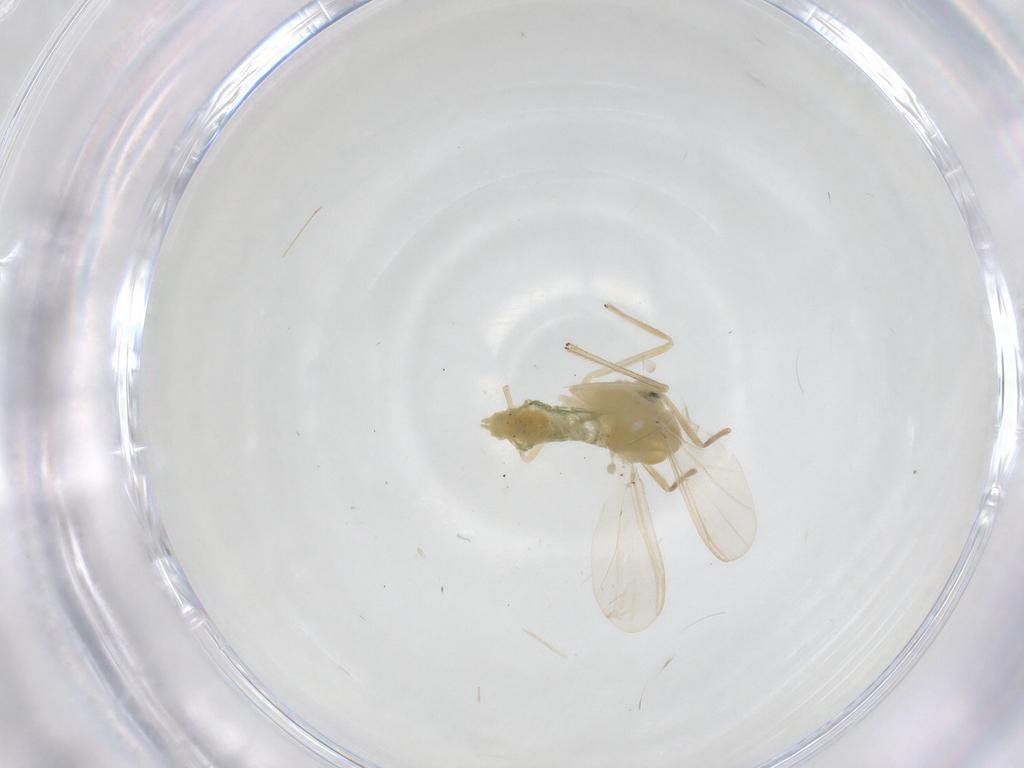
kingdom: Animalia
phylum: Arthropoda
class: Insecta
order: Diptera
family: Chironomidae
